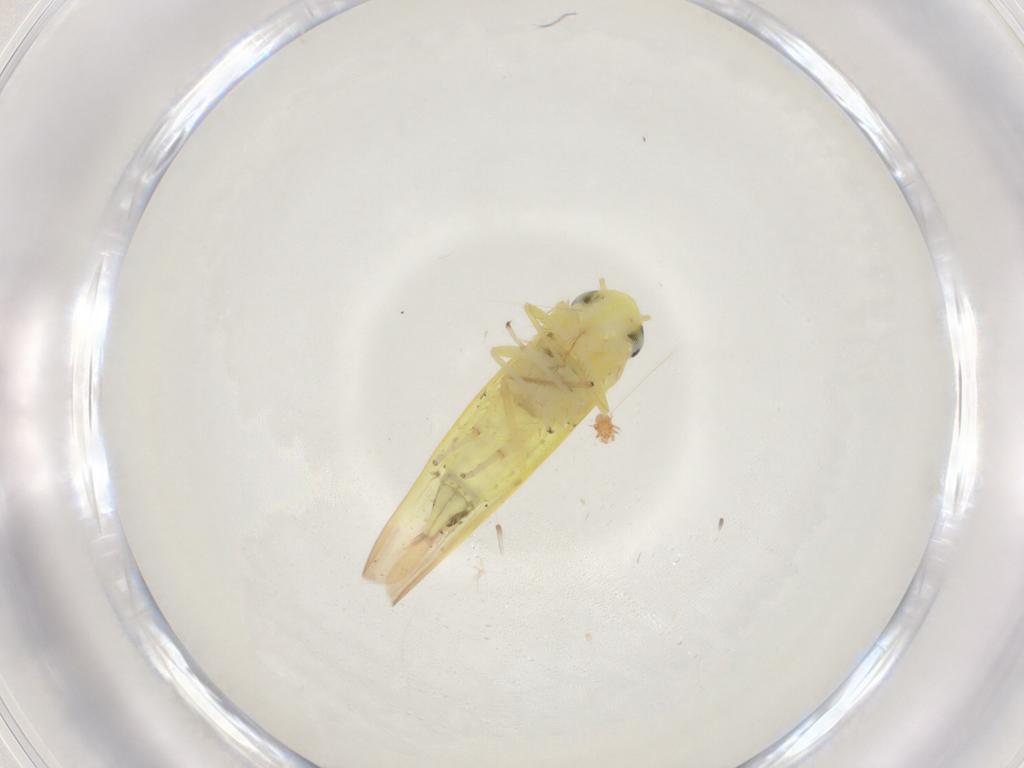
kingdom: Animalia
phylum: Arthropoda
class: Insecta
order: Hemiptera
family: Cicadellidae
